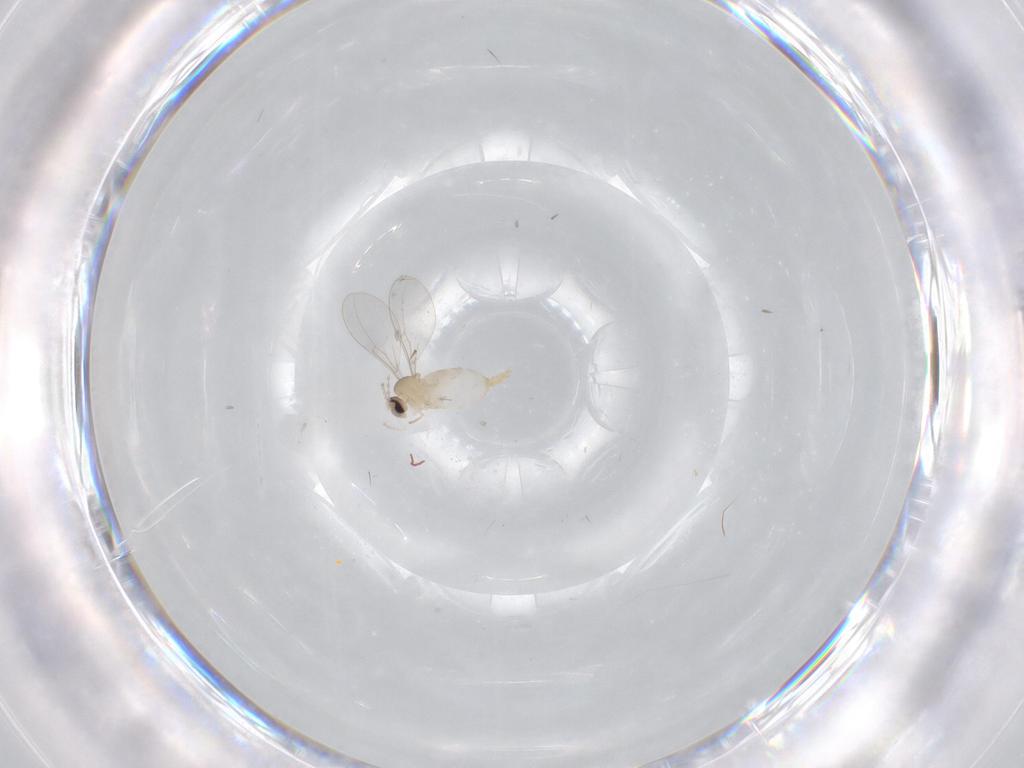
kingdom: Animalia
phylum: Arthropoda
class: Insecta
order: Diptera
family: Cecidomyiidae
